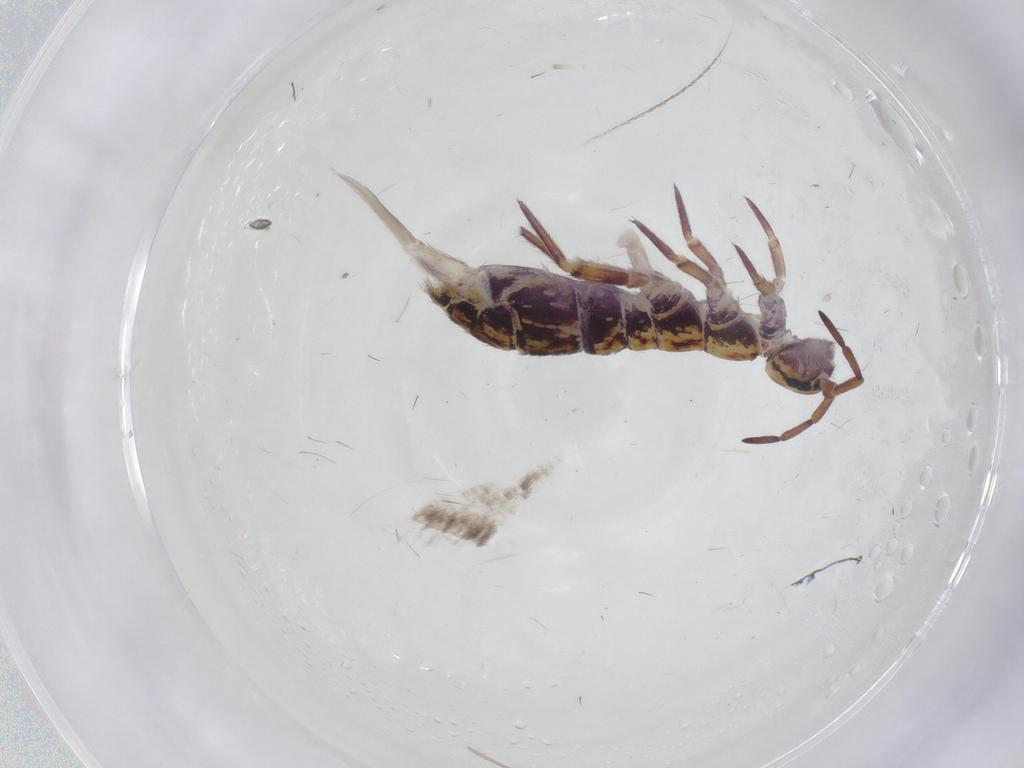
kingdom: Animalia
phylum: Arthropoda
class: Collembola
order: Entomobryomorpha
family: Isotomidae
